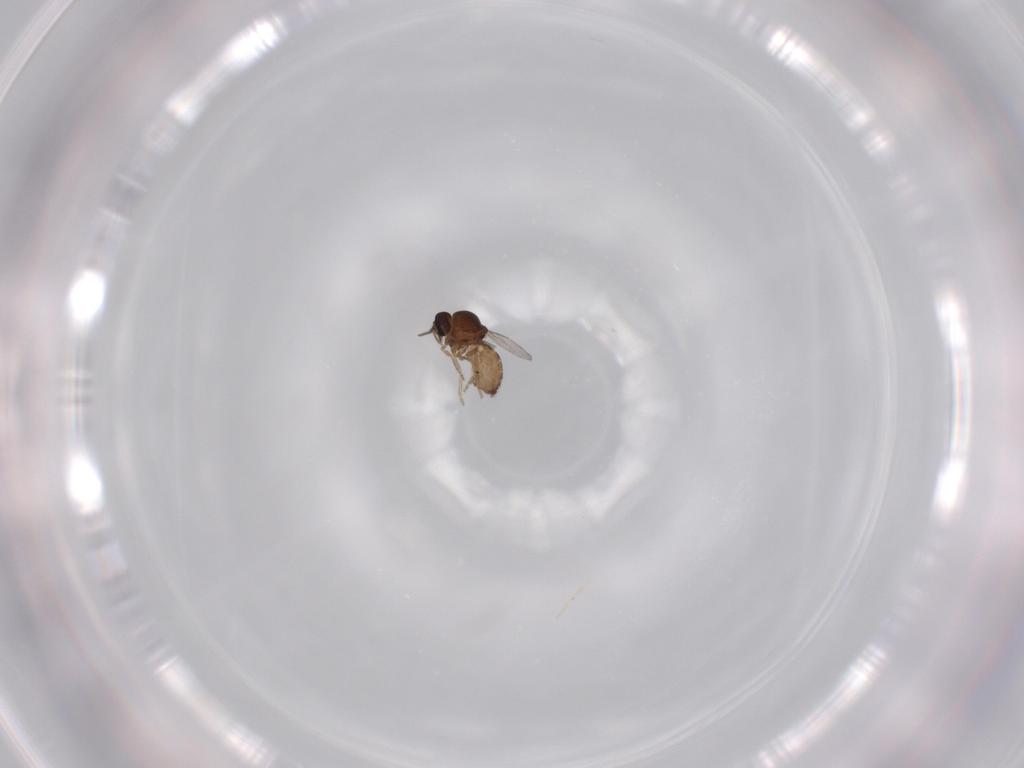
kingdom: Animalia
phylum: Arthropoda
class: Insecta
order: Diptera
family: Ceratopogonidae
